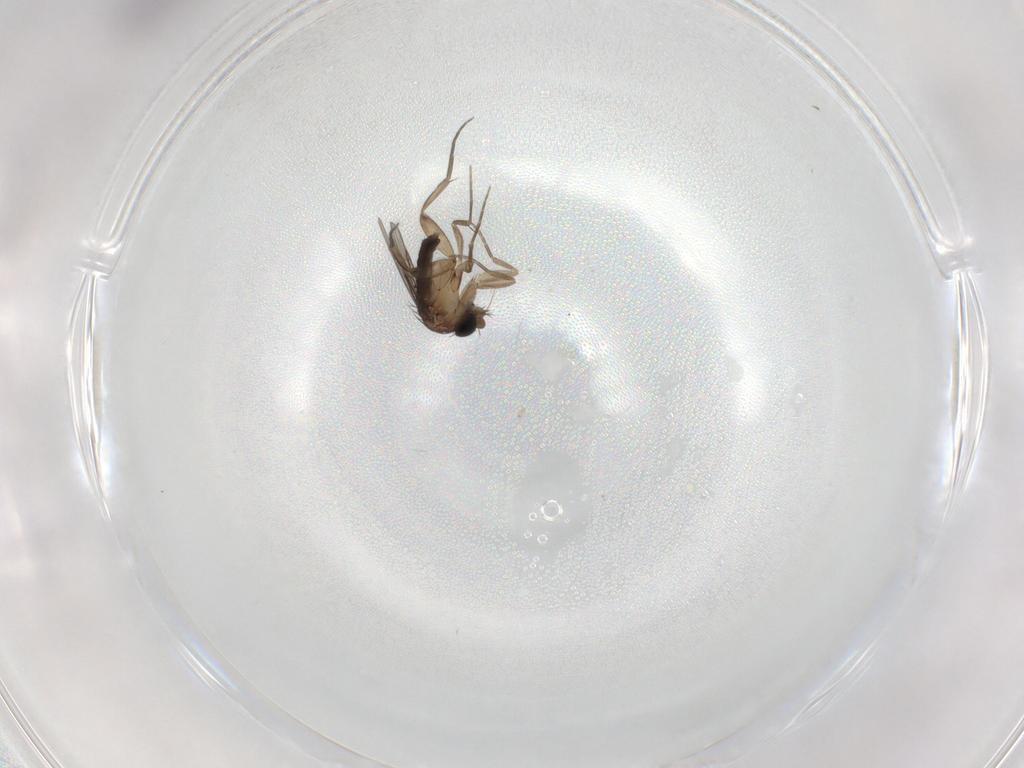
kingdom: Animalia
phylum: Arthropoda
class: Insecta
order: Diptera
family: Phoridae
